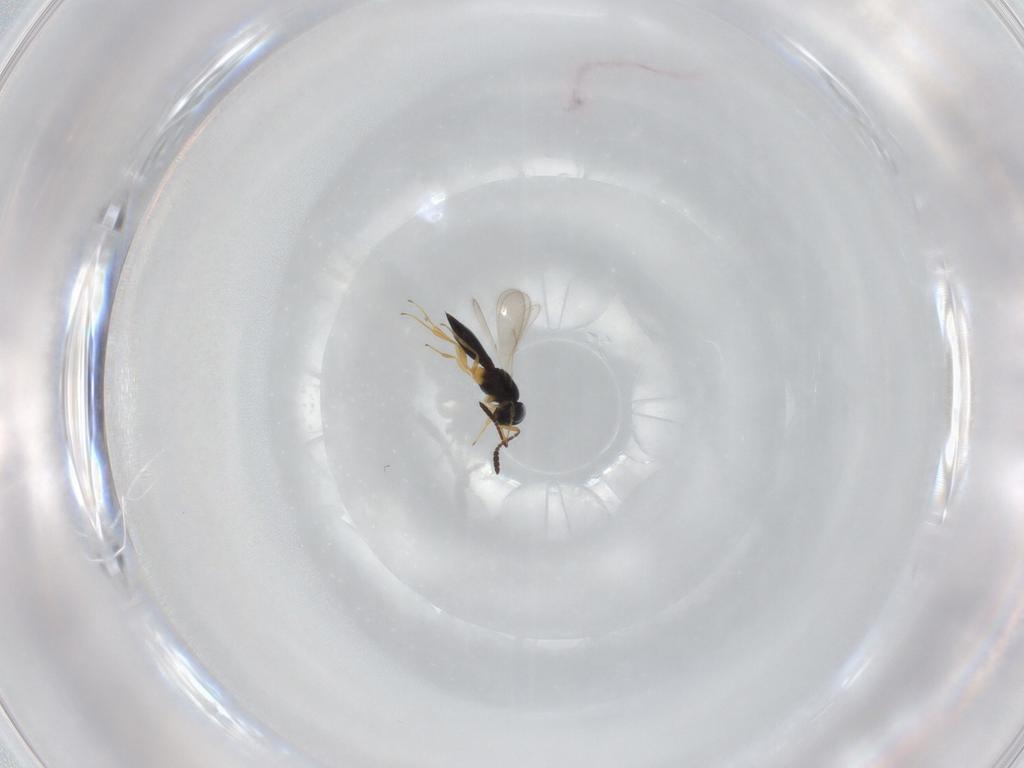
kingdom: Animalia
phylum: Arthropoda
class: Insecta
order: Hymenoptera
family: Scelionidae
